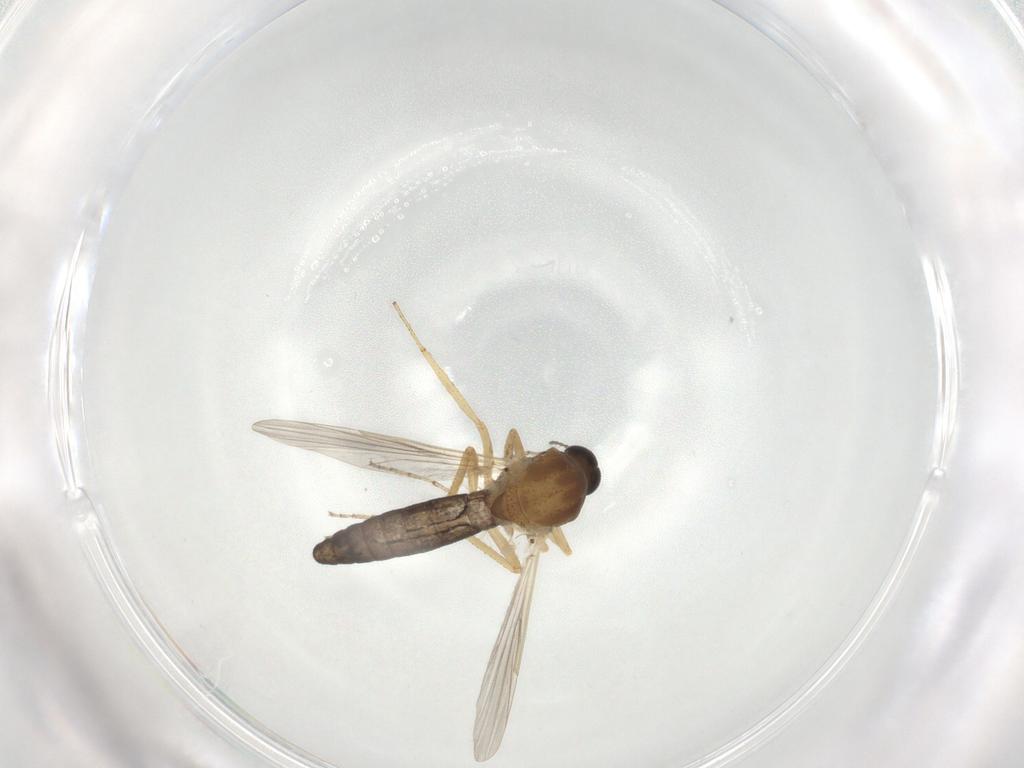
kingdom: Animalia
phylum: Arthropoda
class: Insecta
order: Diptera
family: Ceratopogonidae
